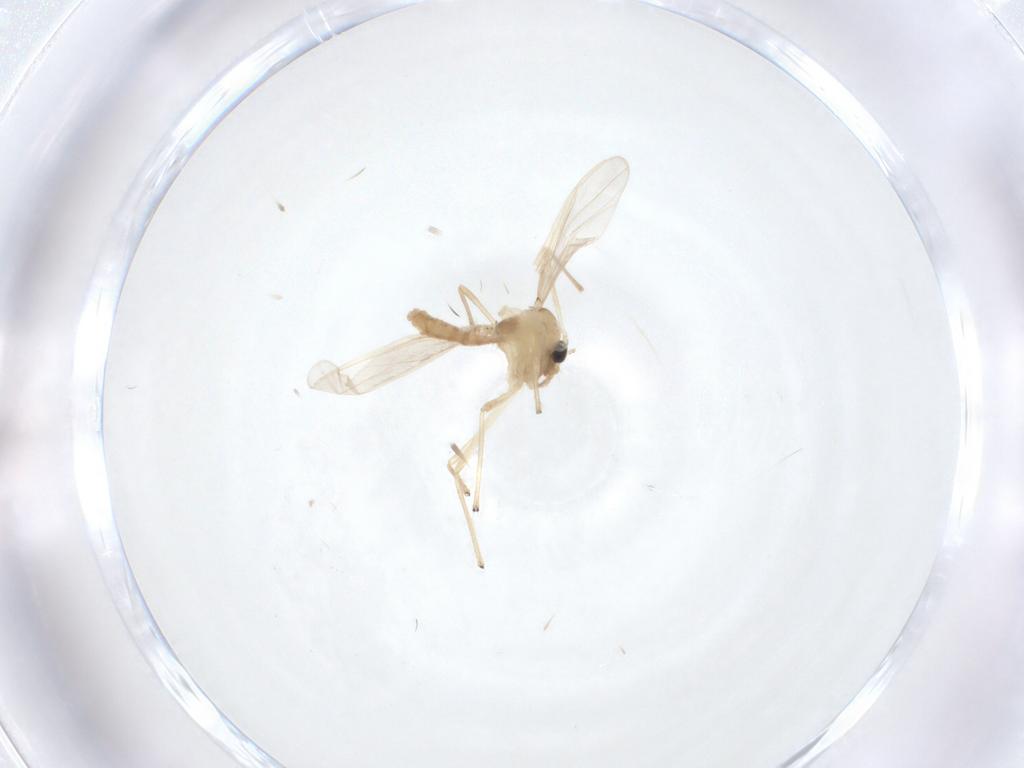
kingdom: Animalia
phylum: Arthropoda
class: Insecta
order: Diptera
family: Chironomidae
